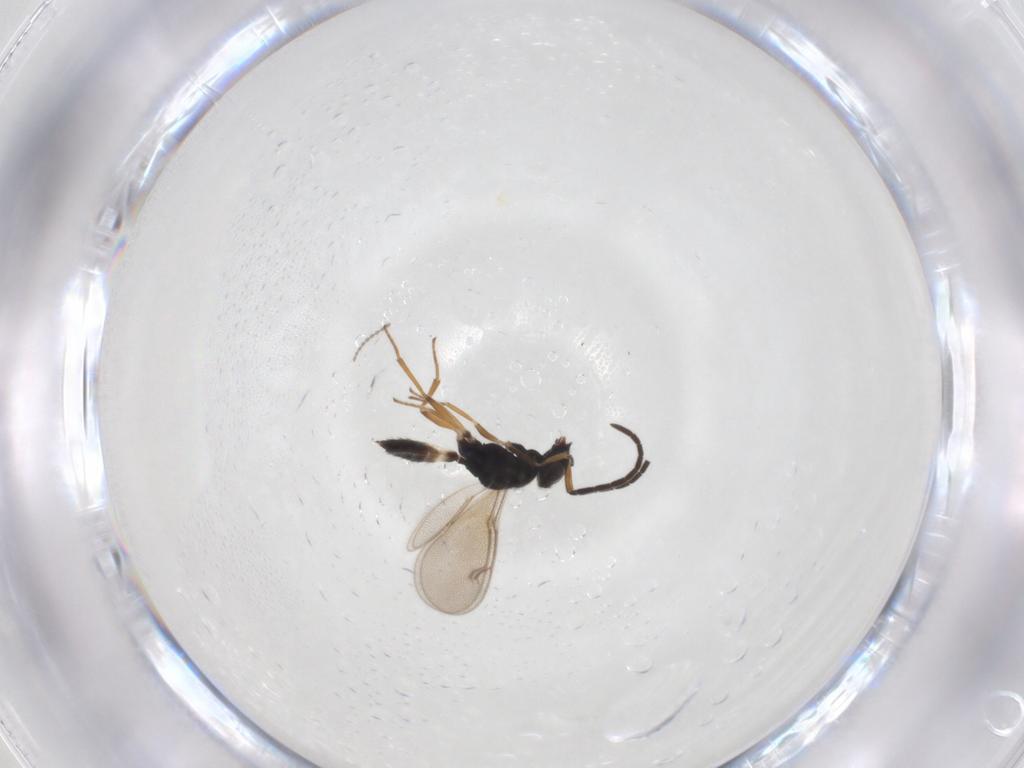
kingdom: Animalia
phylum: Arthropoda
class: Insecta
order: Hymenoptera
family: Eupelmidae
